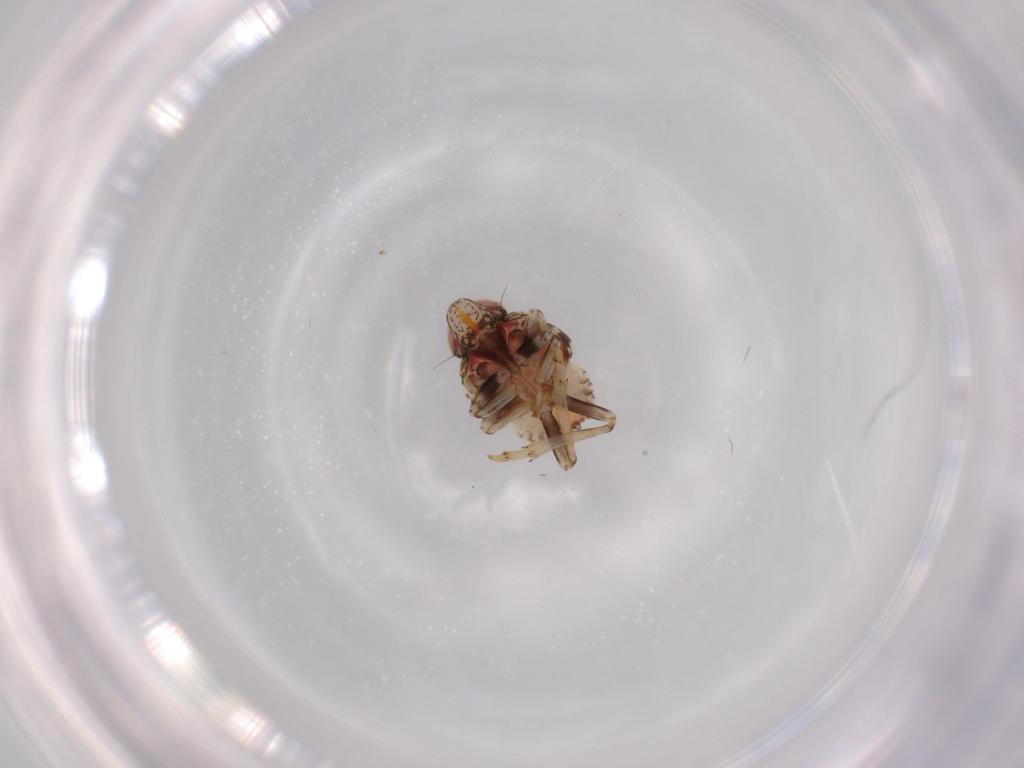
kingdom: Animalia
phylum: Arthropoda
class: Insecta
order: Hemiptera
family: Issidae
